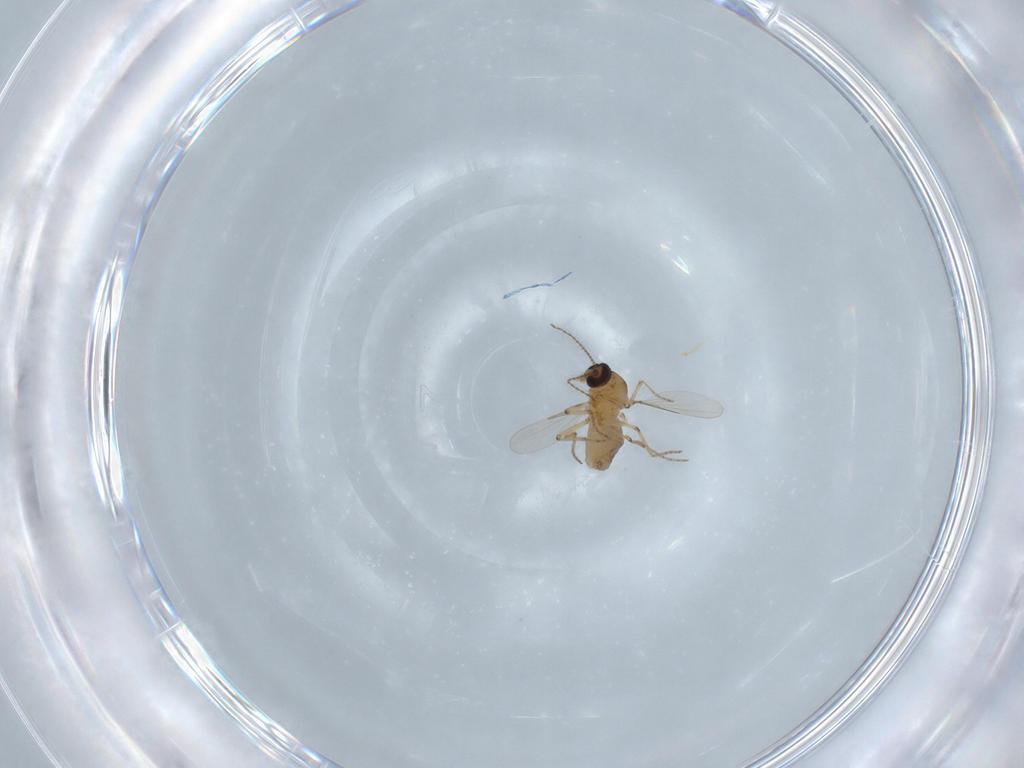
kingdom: Animalia
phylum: Arthropoda
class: Insecta
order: Diptera
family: Ceratopogonidae
